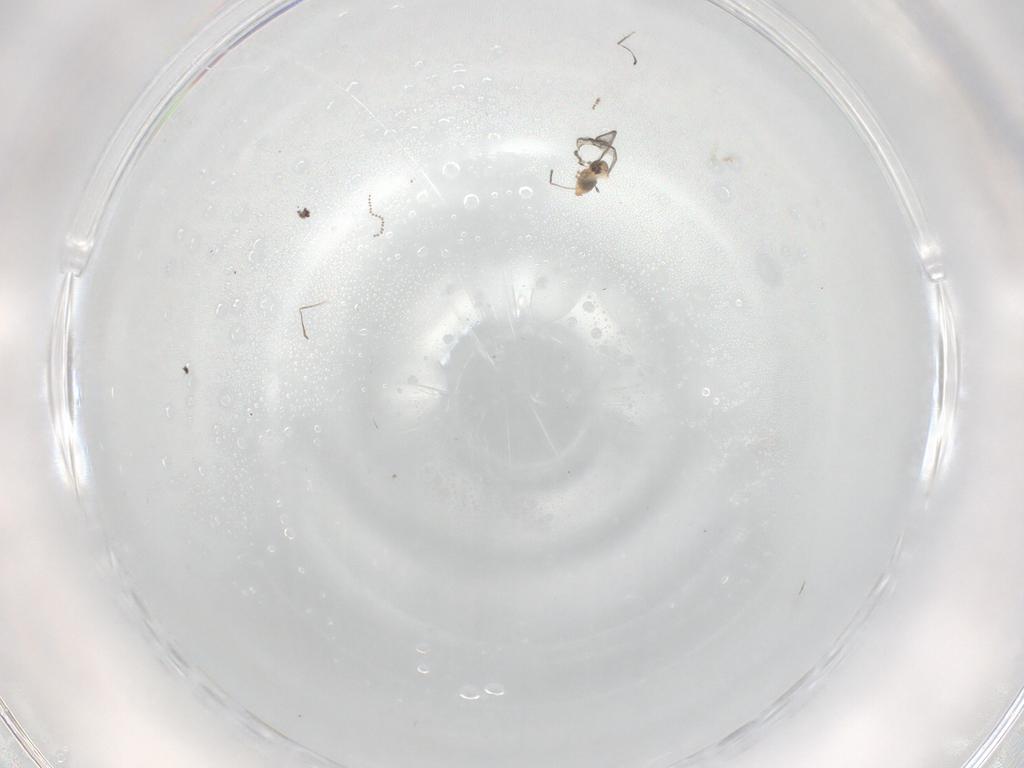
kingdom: Animalia
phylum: Arthropoda
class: Insecta
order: Diptera
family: Cecidomyiidae
